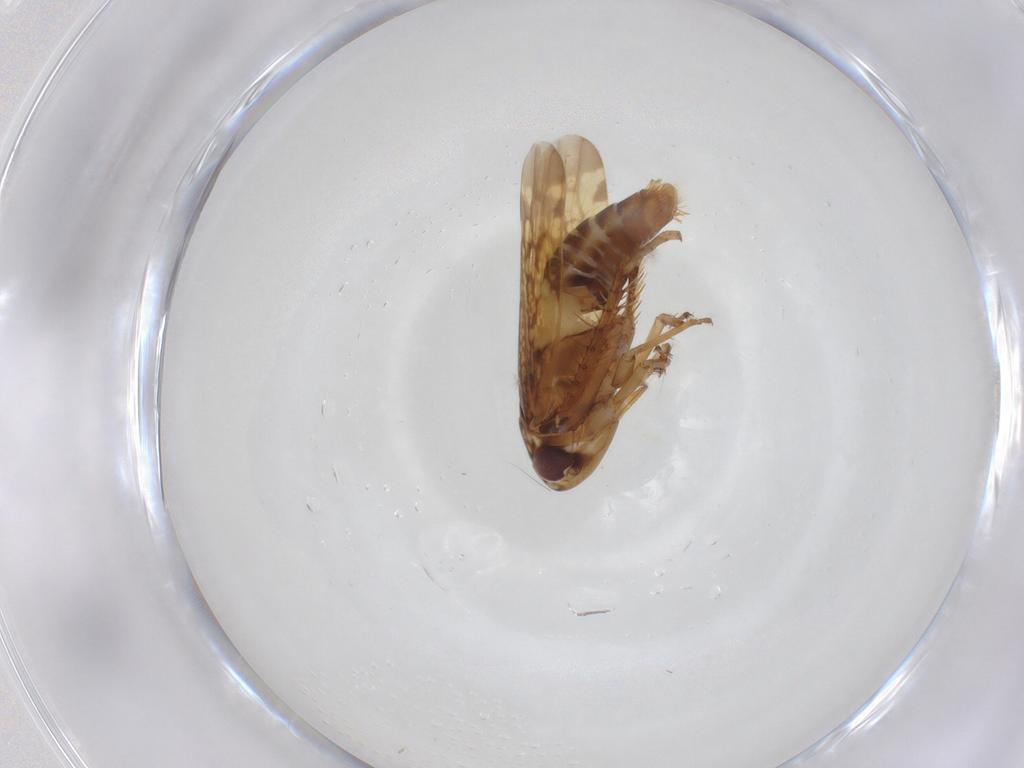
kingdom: Animalia
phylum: Arthropoda
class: Insecta
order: Hemiptera
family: Cicadellidae
